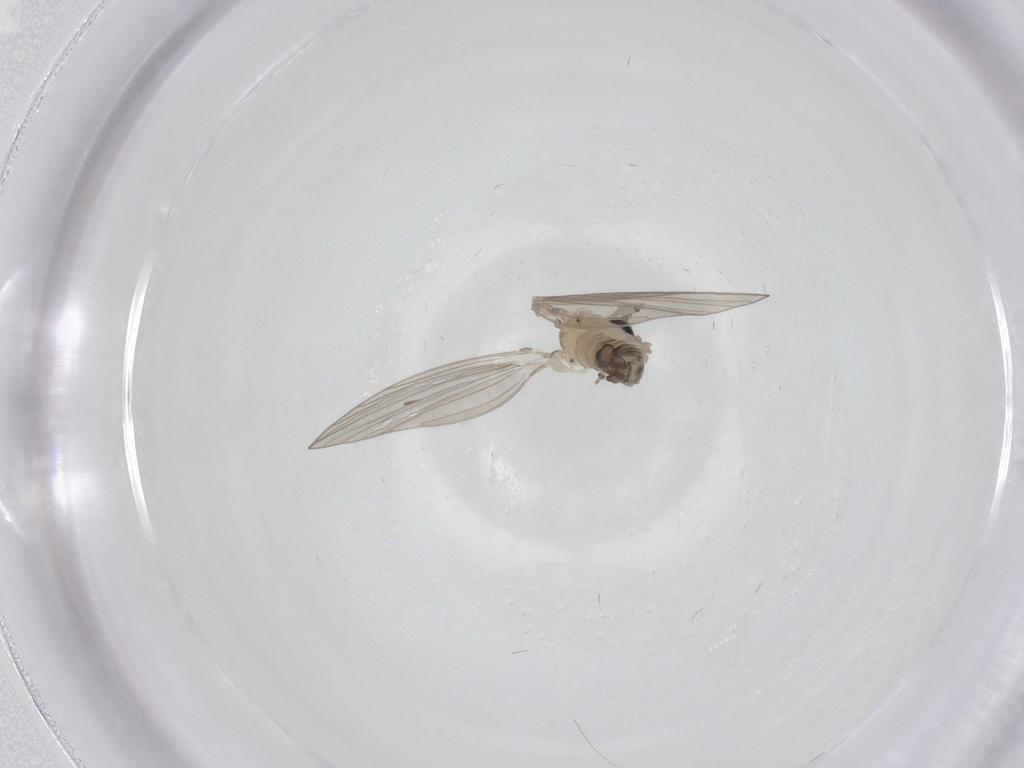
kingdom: Animalia
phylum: Arthropoda
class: Insecta
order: Diptera
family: Psychodidae
